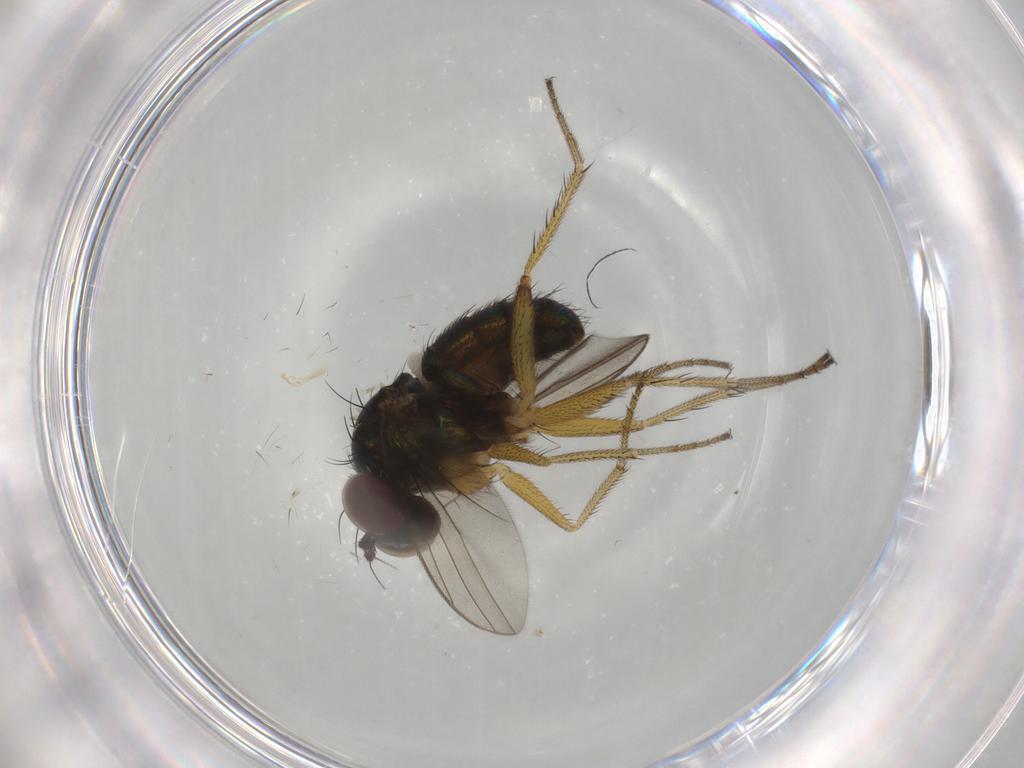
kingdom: Animalia
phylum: Arthropoda
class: Insecta
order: Diptera
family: Dolichopodidae
